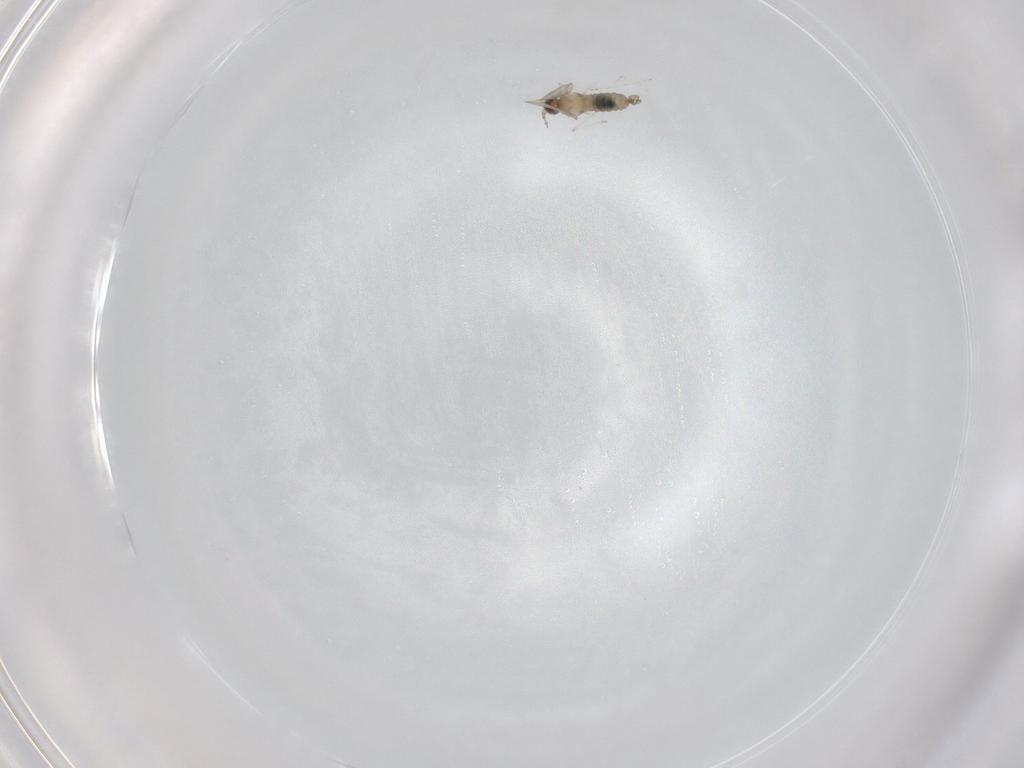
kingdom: Animalia
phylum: Arthropoda
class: Insecta
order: Diptera
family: Cecidomyiidae
